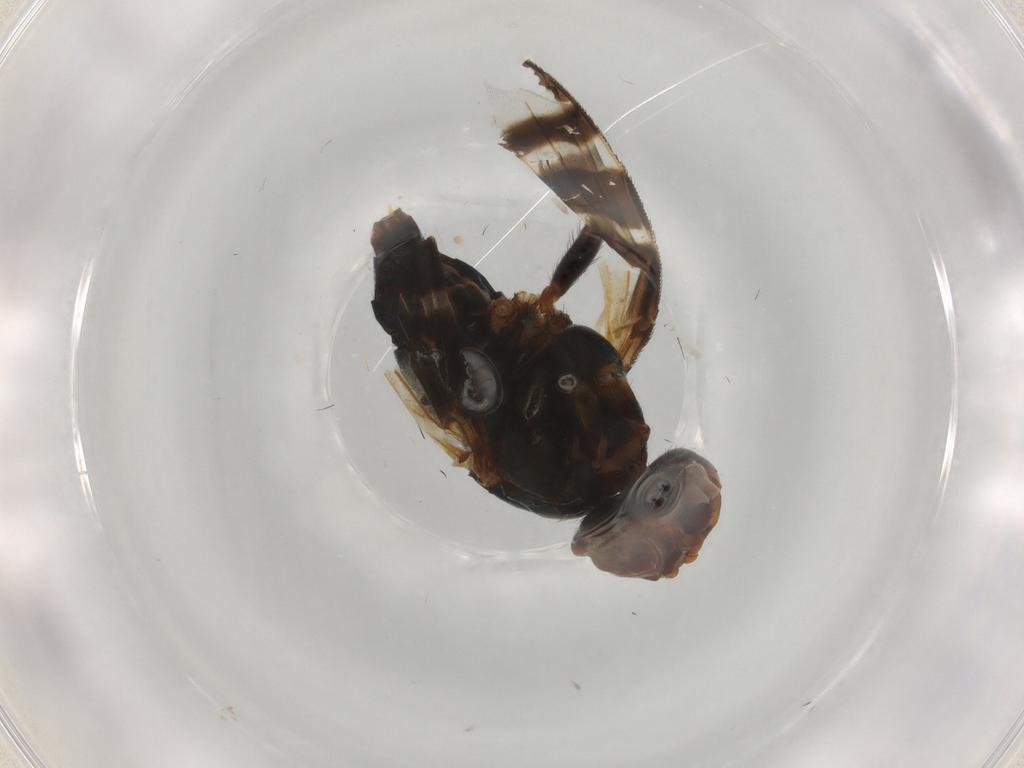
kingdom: Animalia
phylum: Arthropoda
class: Insecta
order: Diptera
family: Platystomatidae
